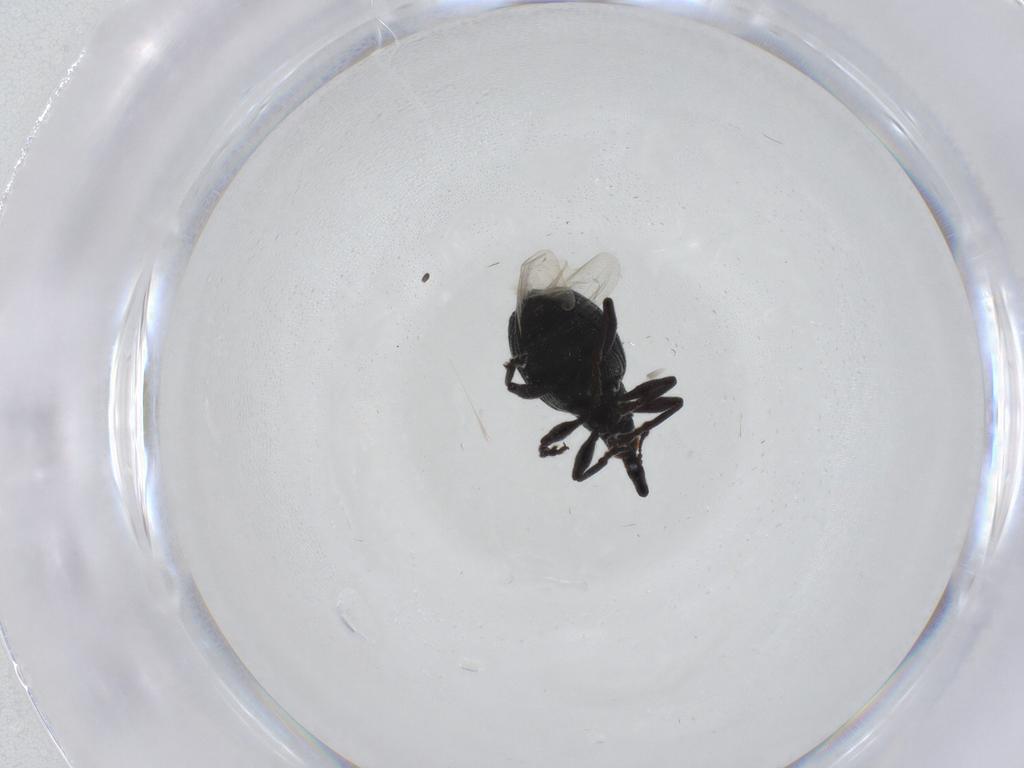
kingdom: Animalia
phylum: Arthropoda
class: Insecta
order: Coleoptera
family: Brentidae
